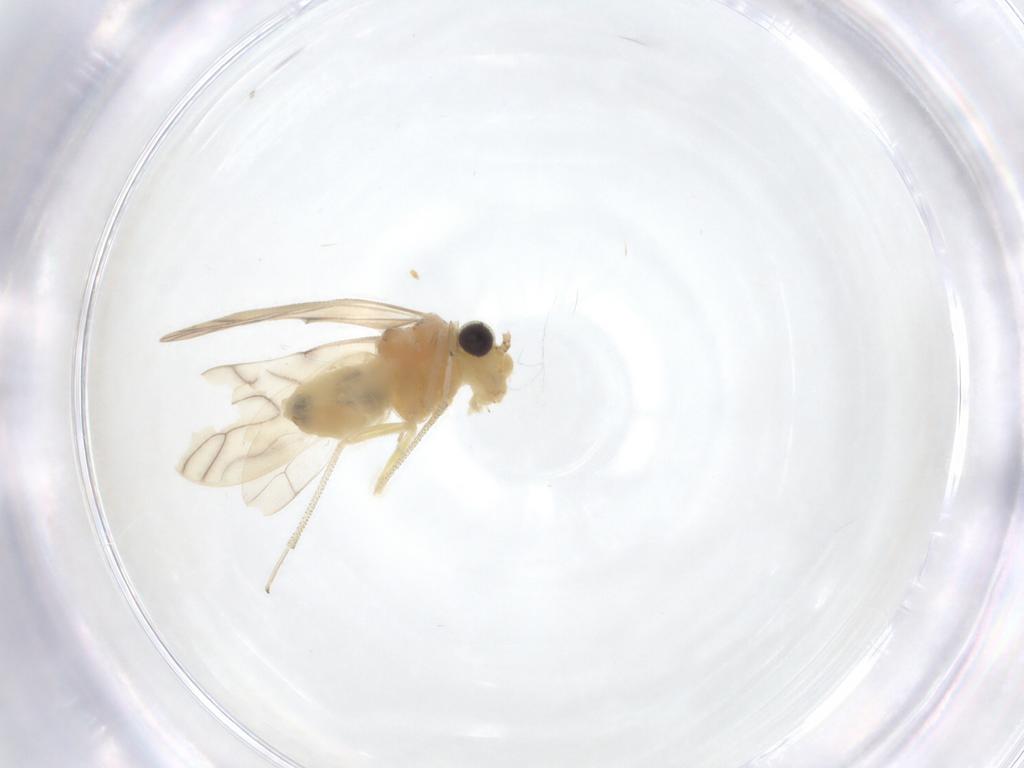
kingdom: Animalia
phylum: Arthropoda
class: Insecta
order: Psocodea
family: Caeciliusidae
